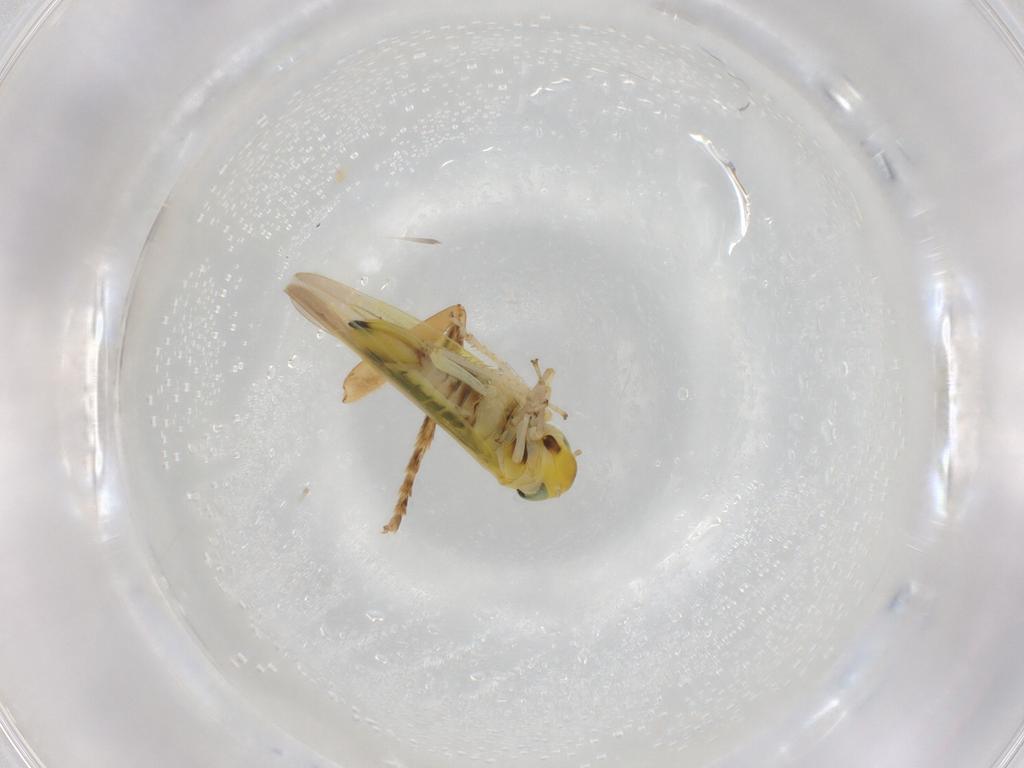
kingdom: Animalia
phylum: Arthropoda
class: Insecta
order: Hemiptera
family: Cicadellidae
